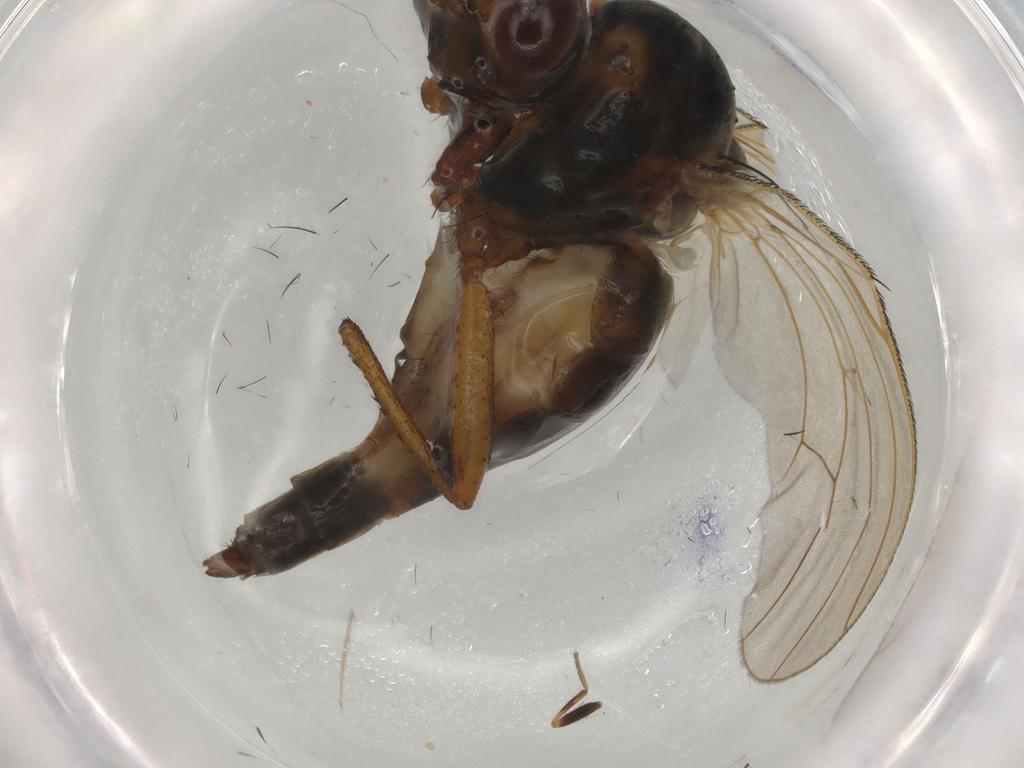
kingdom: Animalia
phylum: Arthropoda
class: Insecta
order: Diptera
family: Anthomyiidae
